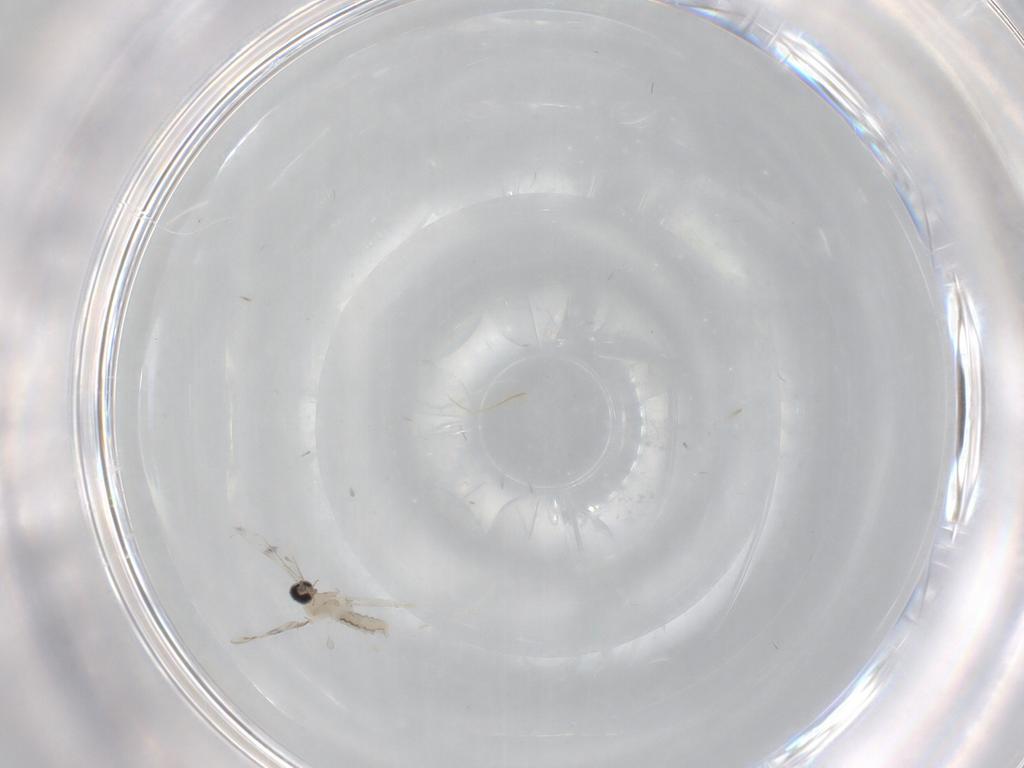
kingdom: Animalia
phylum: Arthropoda
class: Insecta
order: Diptera
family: Cecidomyiidae
